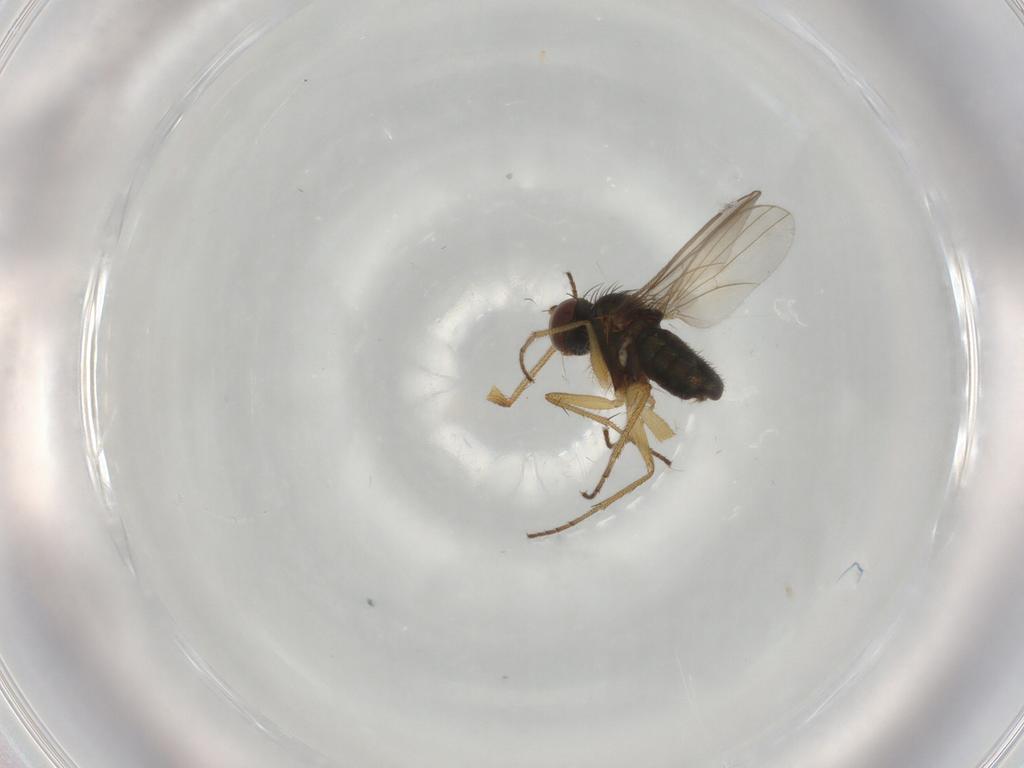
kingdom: Animalia
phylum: Arthropoda
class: Insecta
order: Diptera
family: Dolichopodidae
